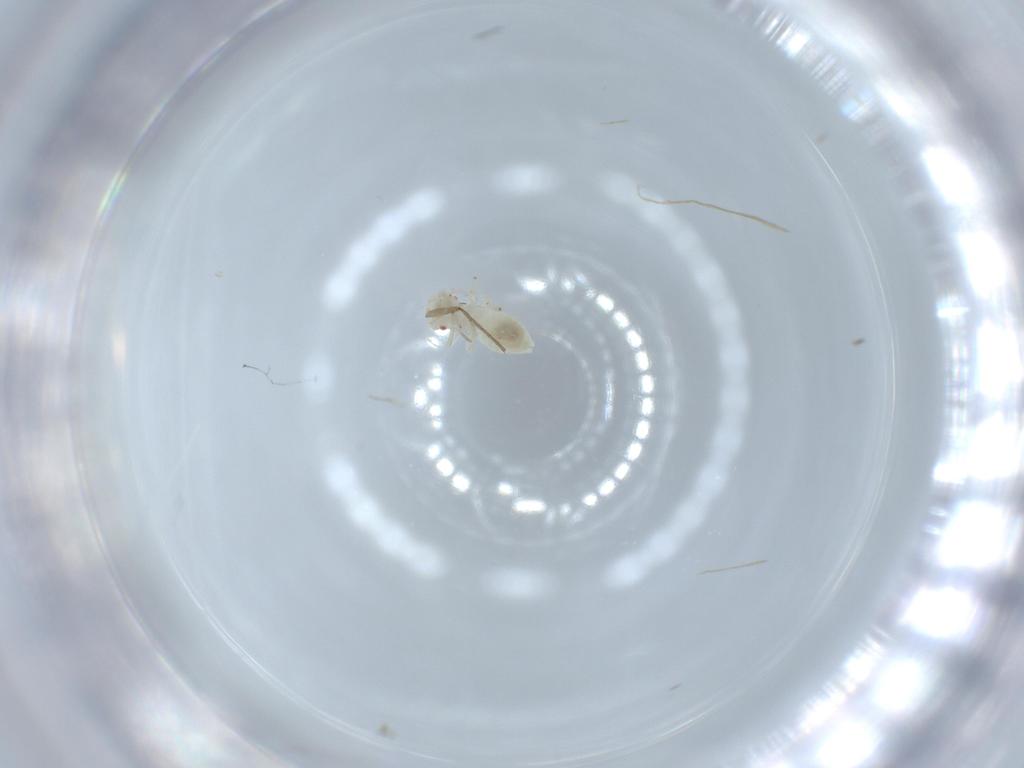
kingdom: Animalia
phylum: Arthropoda
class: Insecta
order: Psocodea
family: Caeciliusidae
